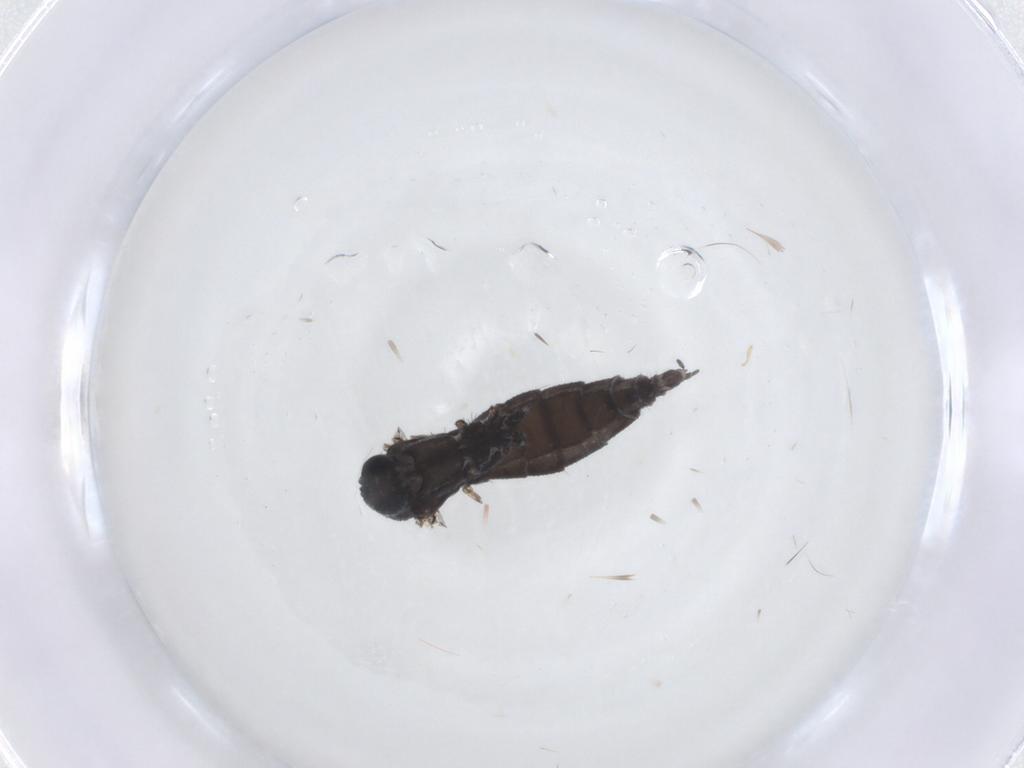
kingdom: Animalia
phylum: Arthropoda
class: Insecta
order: Diptera
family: Sciaridae
